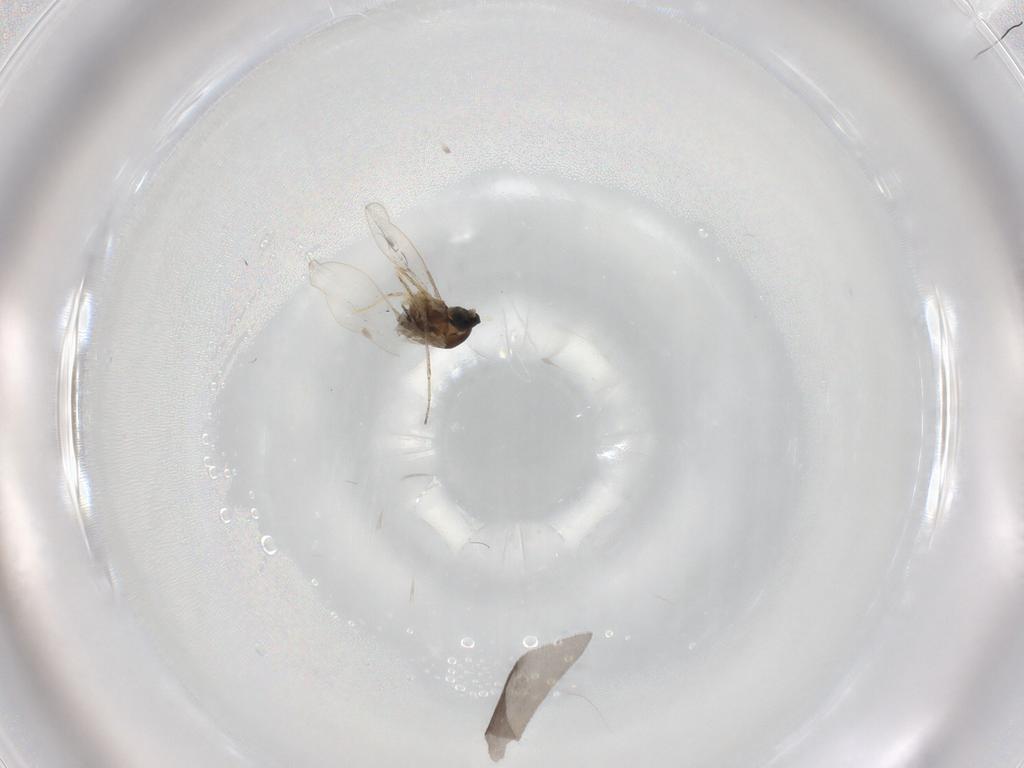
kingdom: Animalia
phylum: Arthropoda
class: Insecta
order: Diptera
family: Cecidomyiidae
